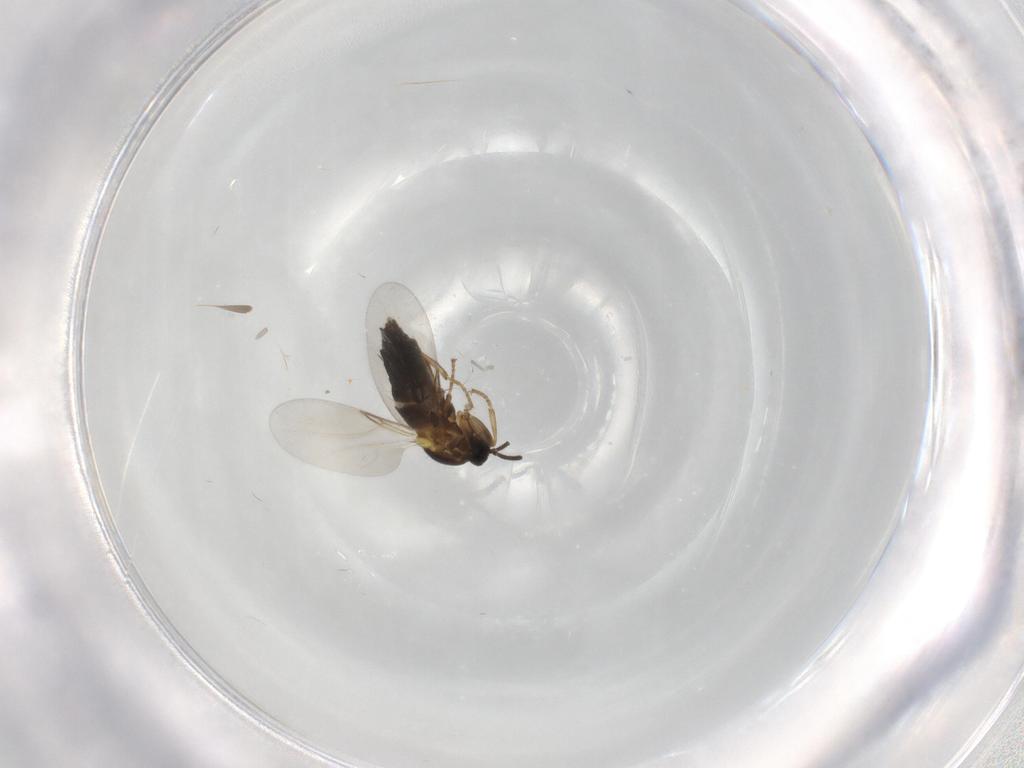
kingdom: Animalia
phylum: Arthropoda
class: Insecta
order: Diptera
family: Scatopsidae
